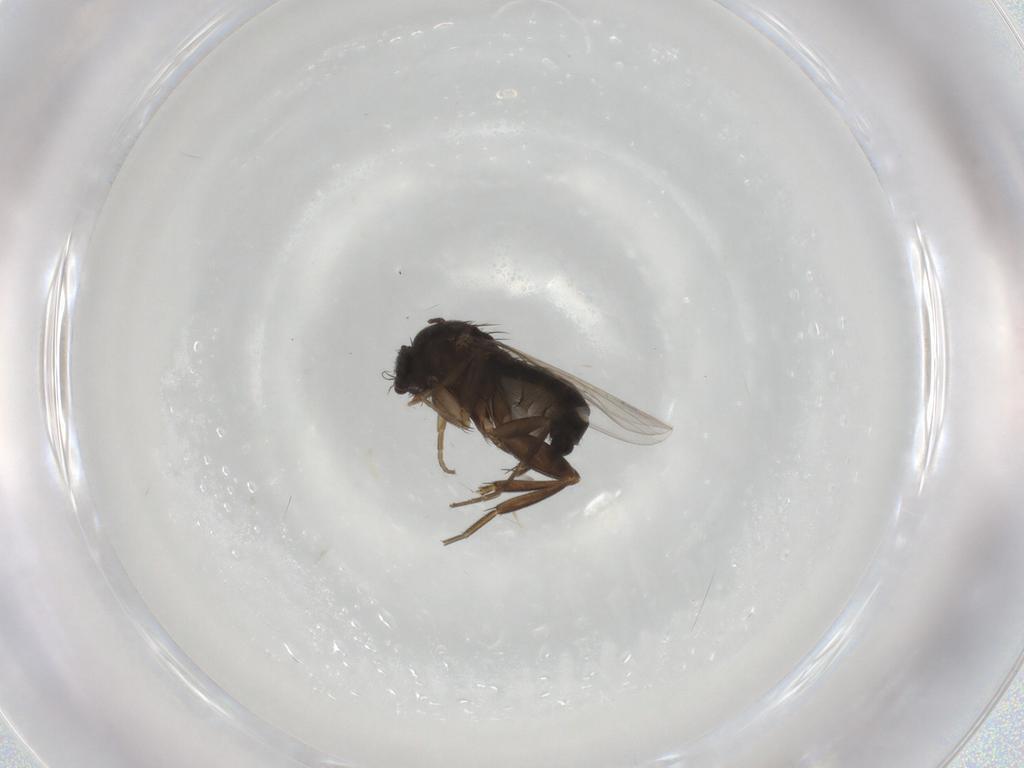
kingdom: Animalia
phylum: Arthropoda
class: Insecta
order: Diptera
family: Phoridae
